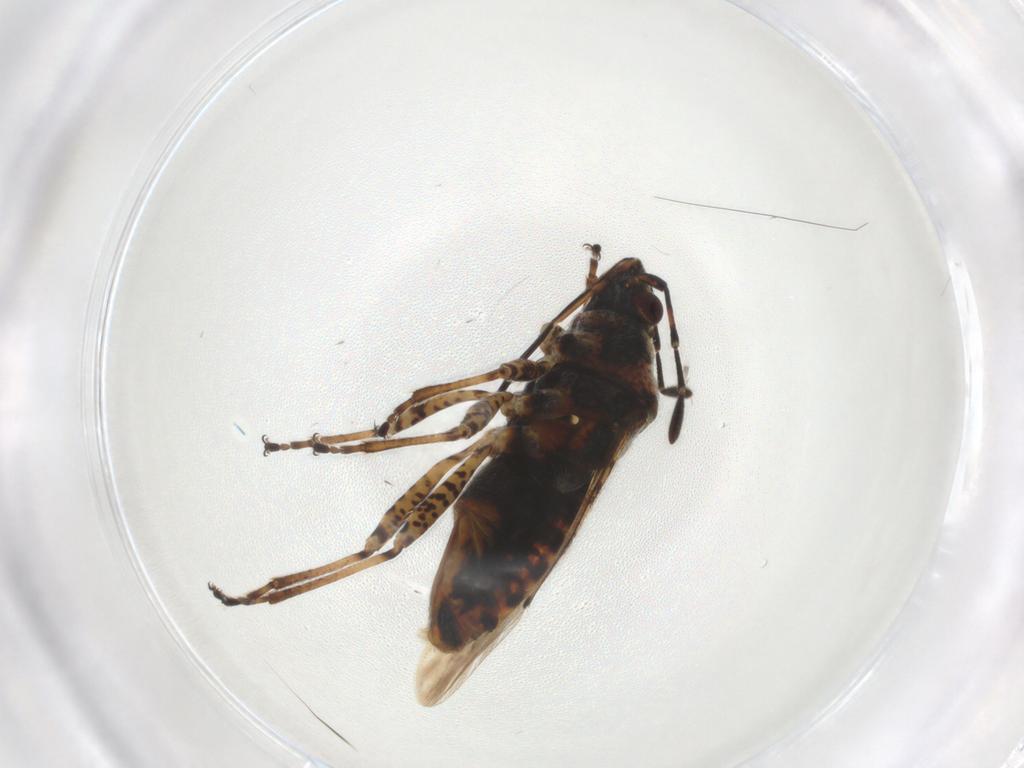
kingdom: Animalia
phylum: Arthropoda
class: Insecta
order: Hemiptera
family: Lygaeidae
